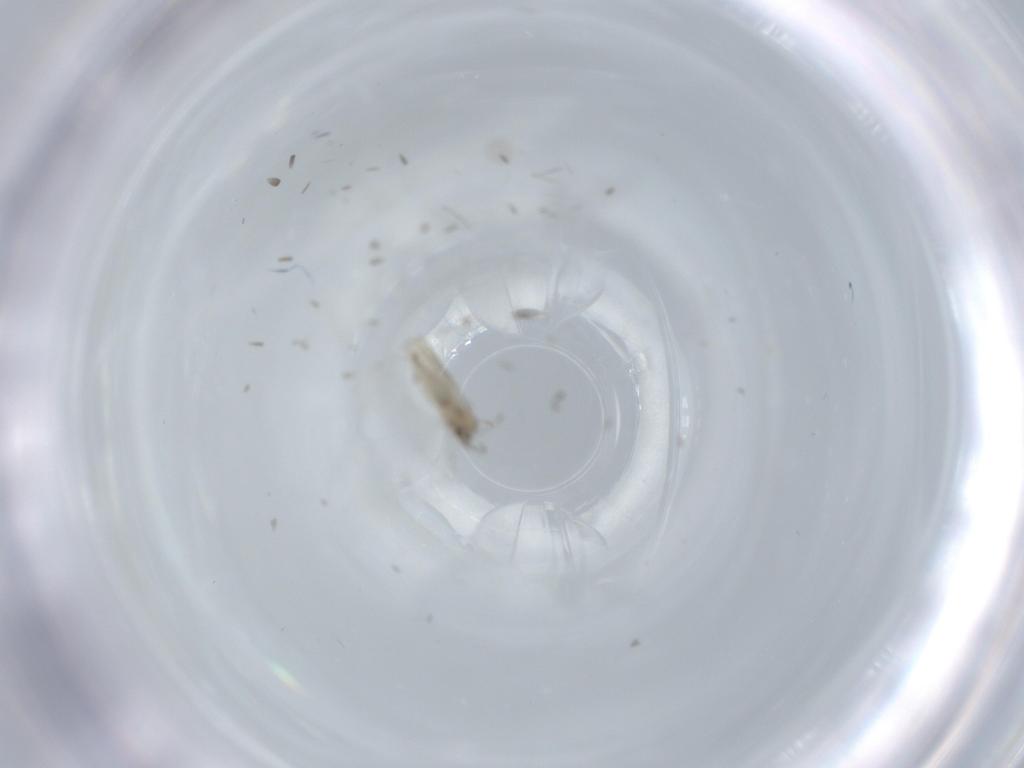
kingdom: Animalia
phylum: Arthropoda
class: Insecta
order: Diptera
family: Cecidomyiidae
